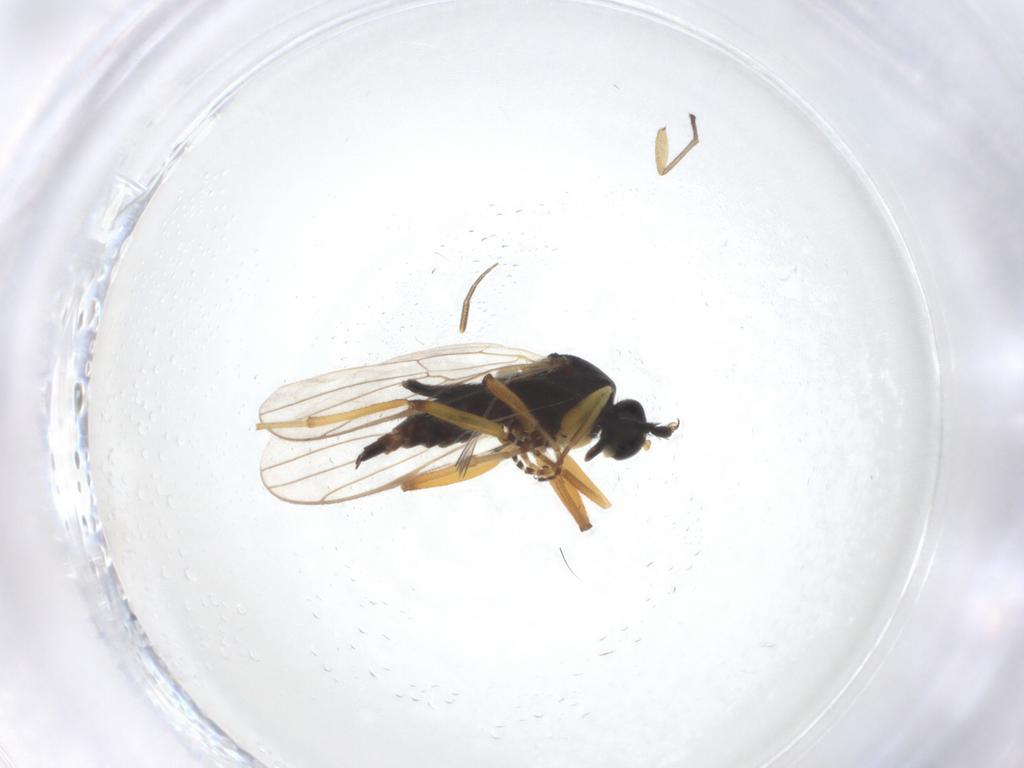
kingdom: Animalia
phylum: Arthropoda
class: Insecta
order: Diptera
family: Hybotidae
